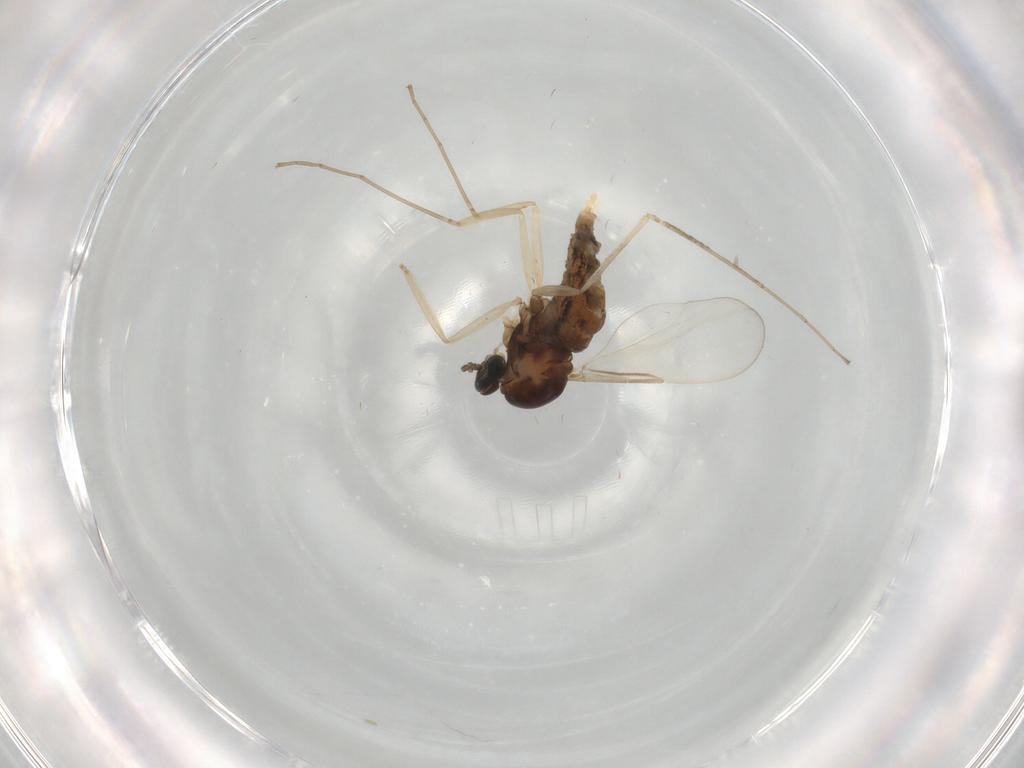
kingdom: Animalia
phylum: Arthropoda
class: Insecta
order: Diptera
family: Cecidomyiidae
